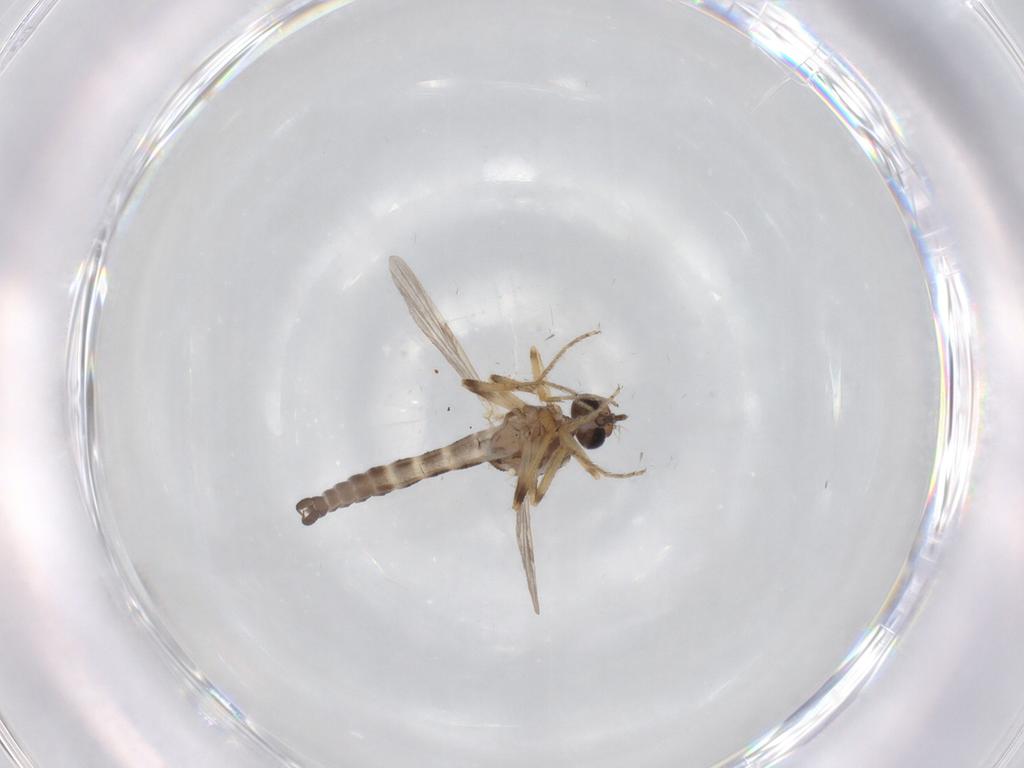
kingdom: Animalia
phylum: Arthropoda
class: Insecta
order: Diptera
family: Ceratopogonidae
